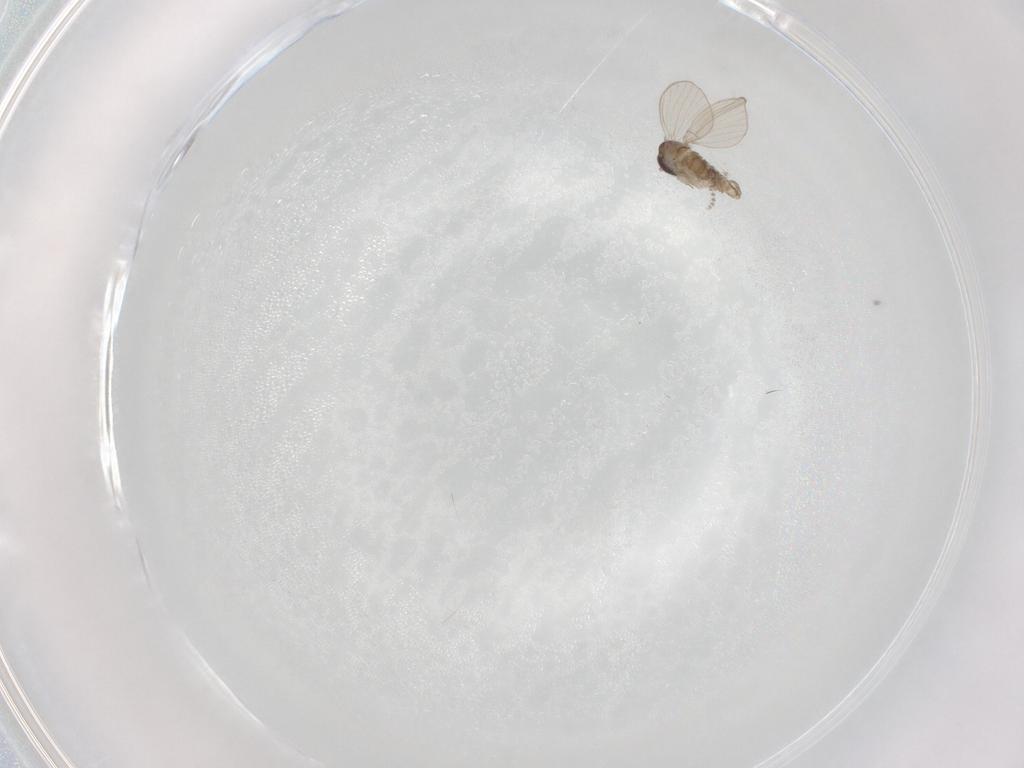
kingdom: Animalia
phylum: Arthropoda
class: Insecta
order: Diptera
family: Psychodidae
